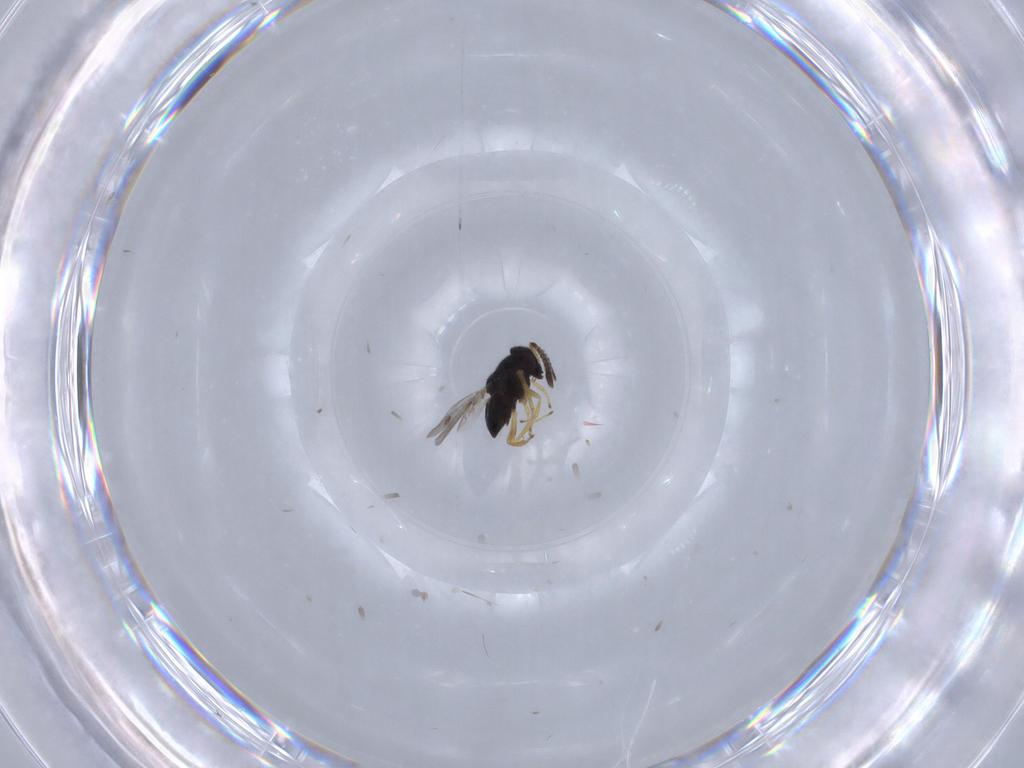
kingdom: Animalia
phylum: Arthropoda
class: Insecta
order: Hymenoptera
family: Encyrtidae
